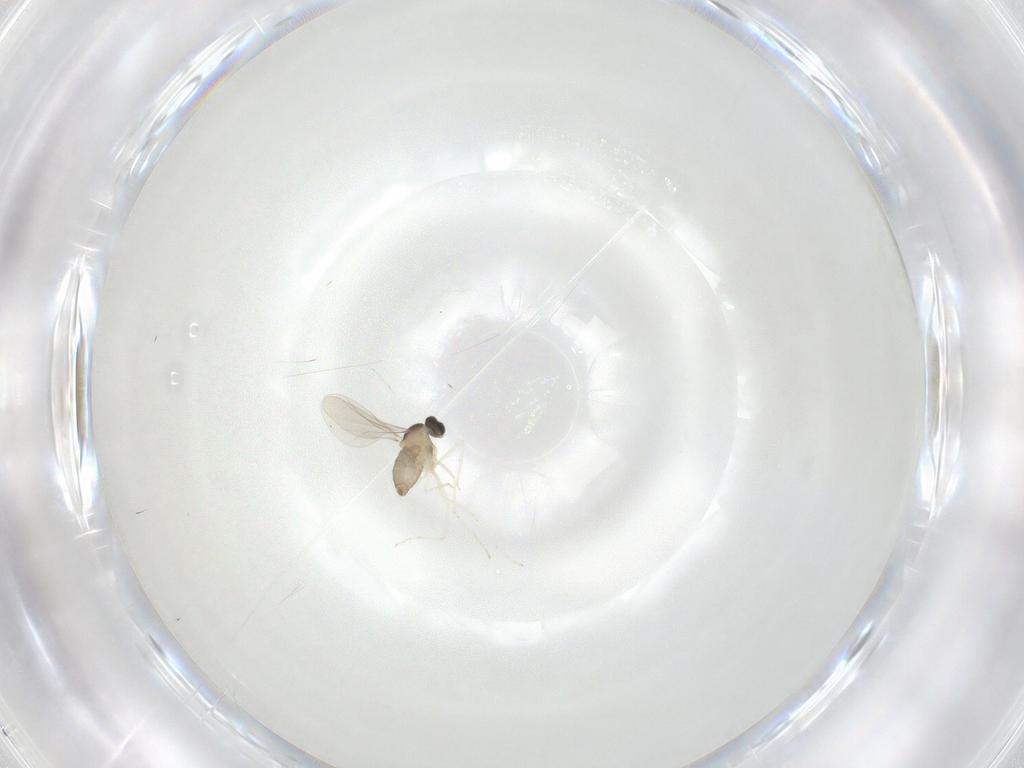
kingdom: Animalia
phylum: Arthropoda
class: Insecta
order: Diptera
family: Cecidomyiidae
